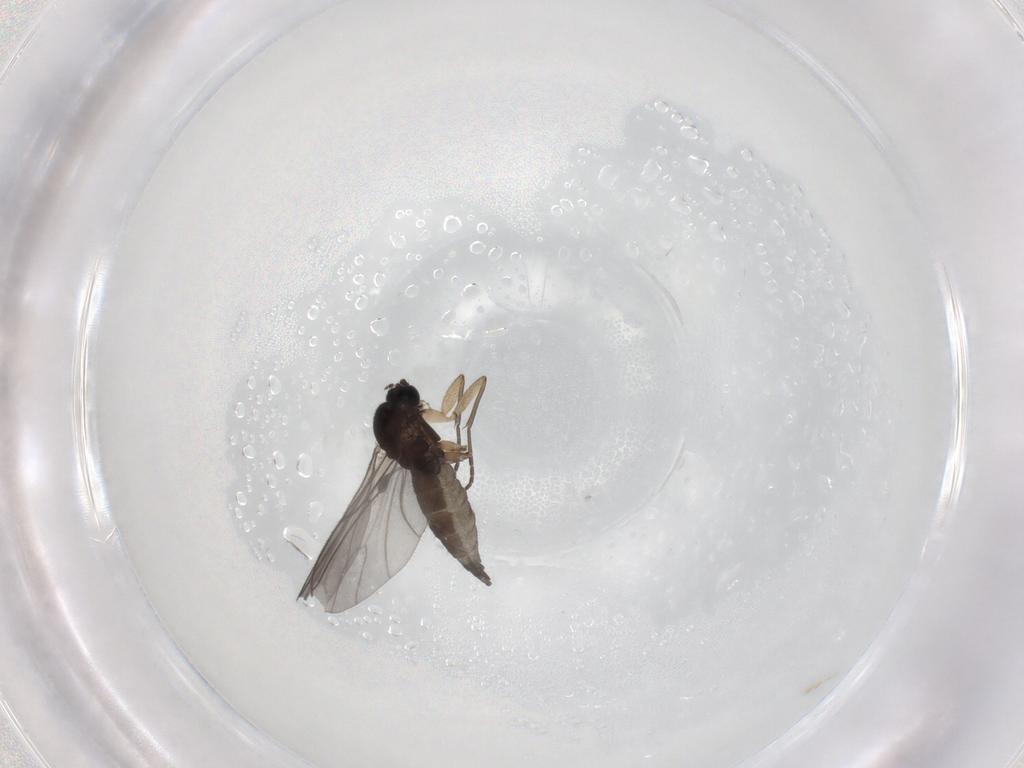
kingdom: Animalia
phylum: Arthropoda
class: Insecta
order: Diptera
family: Sciaridae
